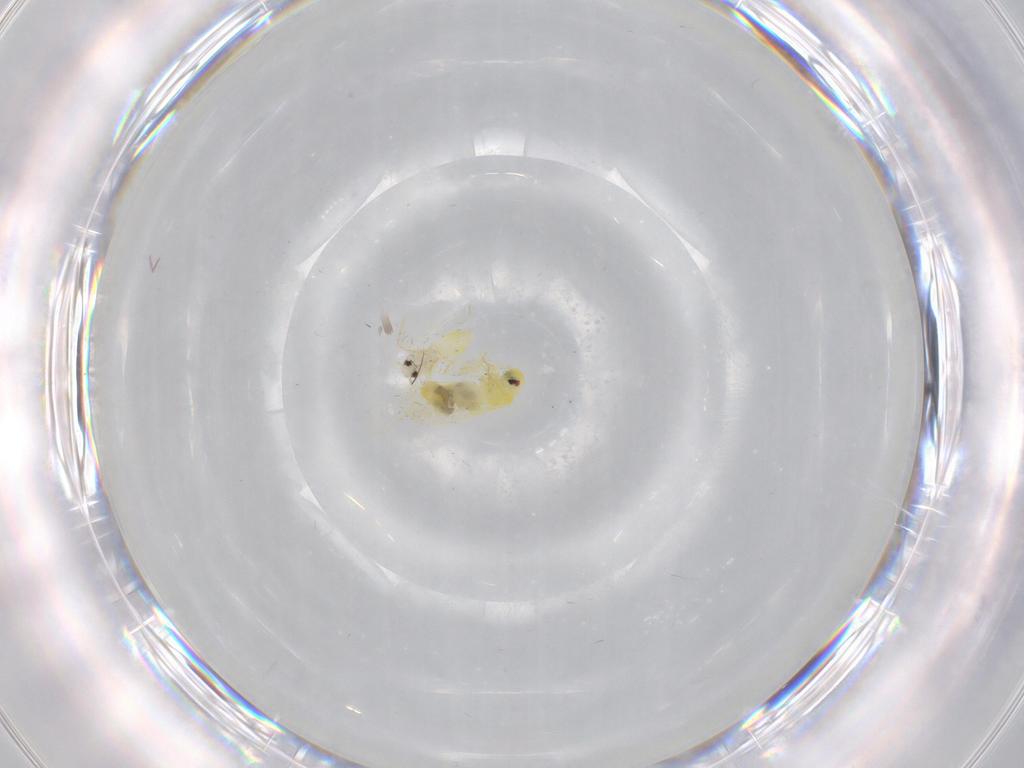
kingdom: Animalia
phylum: Arthropoda
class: Insecta
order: Hemiptera
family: Aleyrodidae
